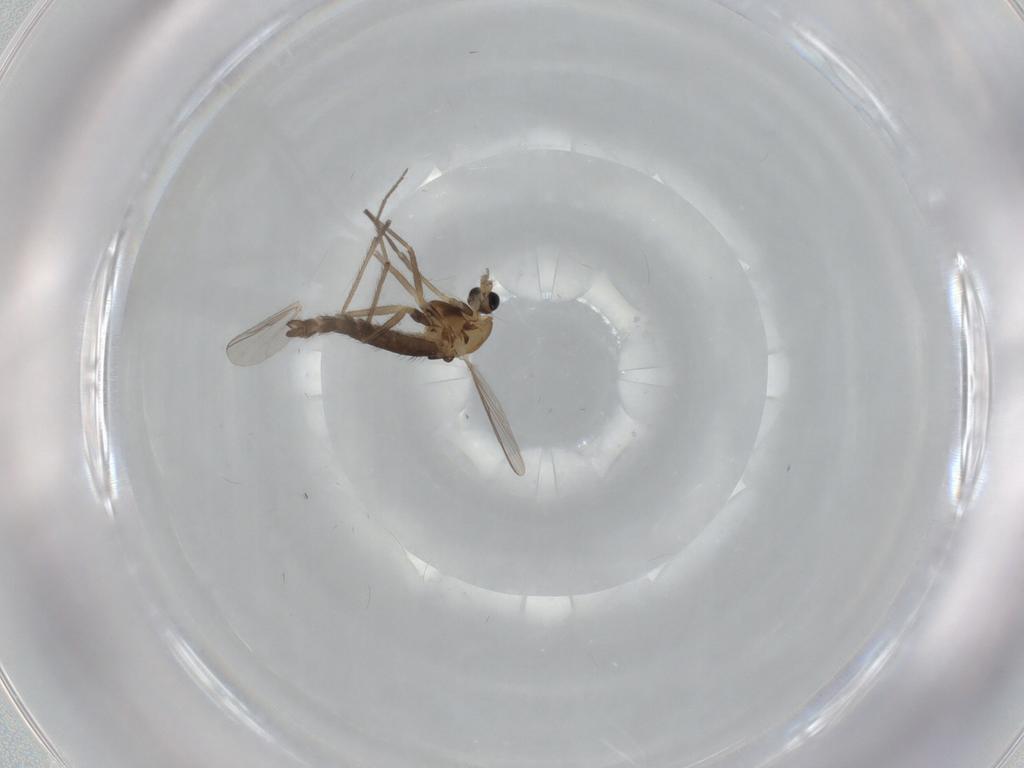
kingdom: Animalia
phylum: Arthropoda
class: Insecta
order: Diptera
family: Chironomidae
